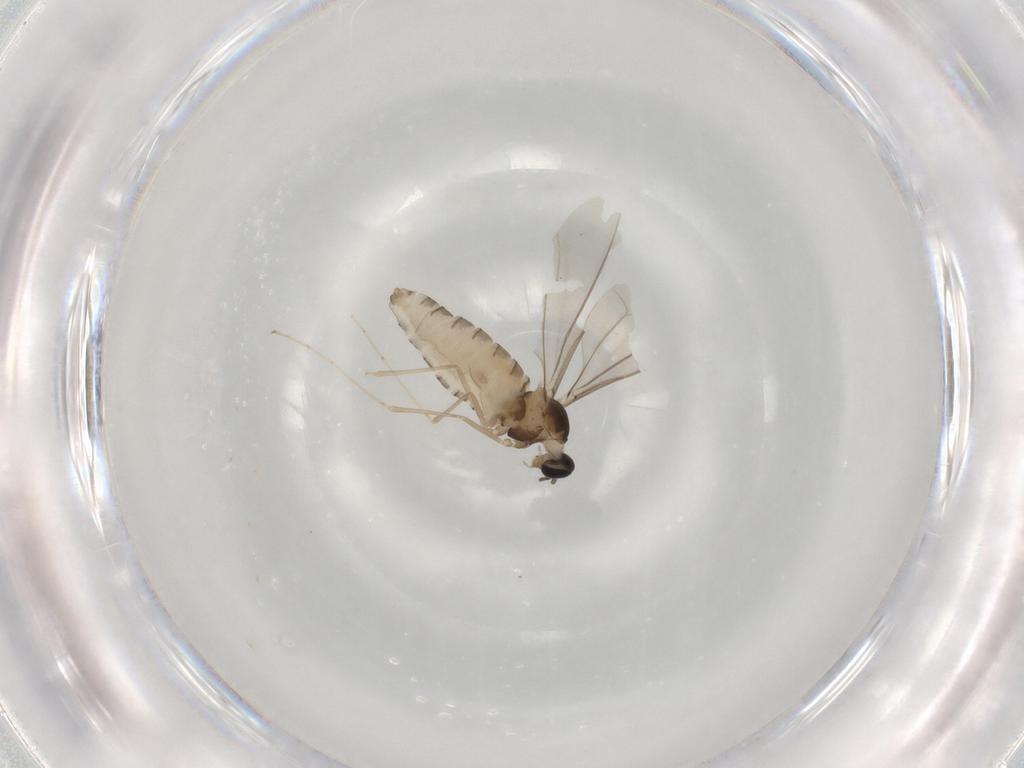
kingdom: Animalia
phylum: Arthropoda
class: Insecta
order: Diptera
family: Cecidomyiidae
